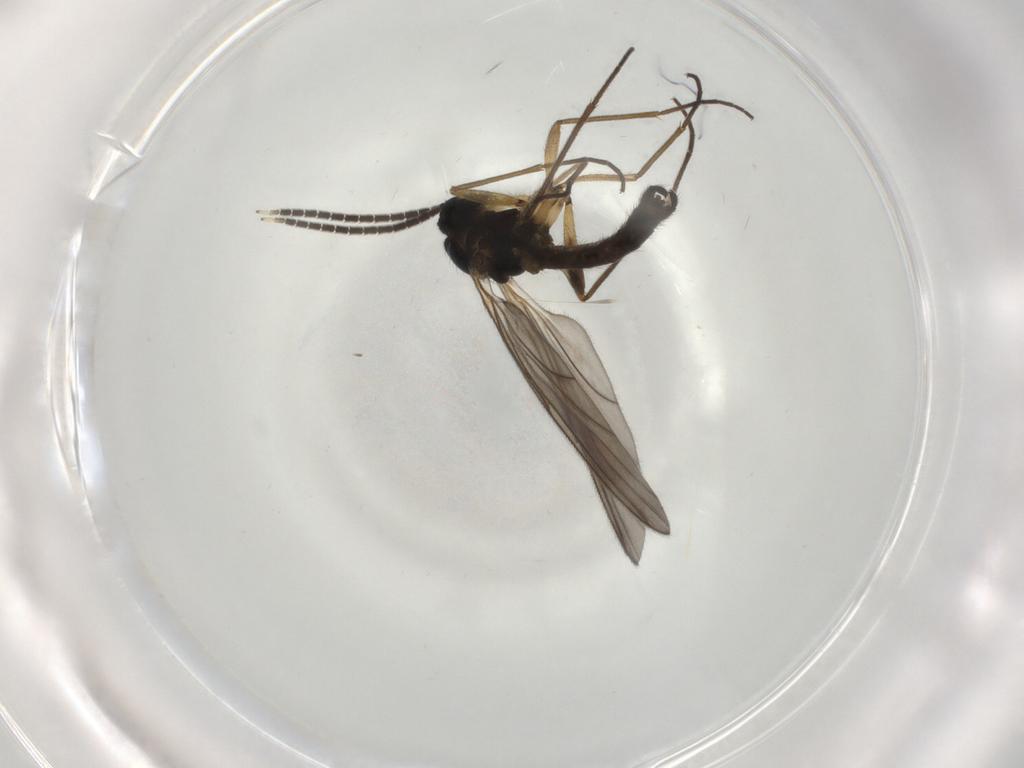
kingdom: Animalia
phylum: Arthropoda
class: Insecta
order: Diptera
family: Sciaridae
